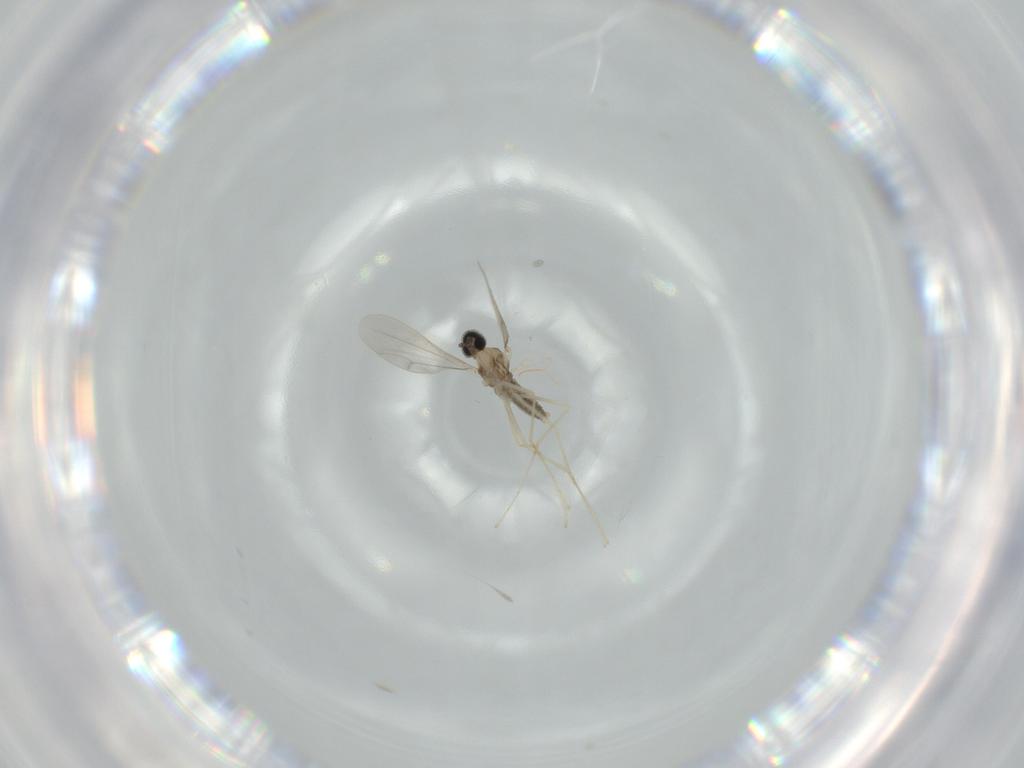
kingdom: Animalia
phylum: Arthropoda
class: Insecta
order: Diptera
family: Cecidomyiidae
